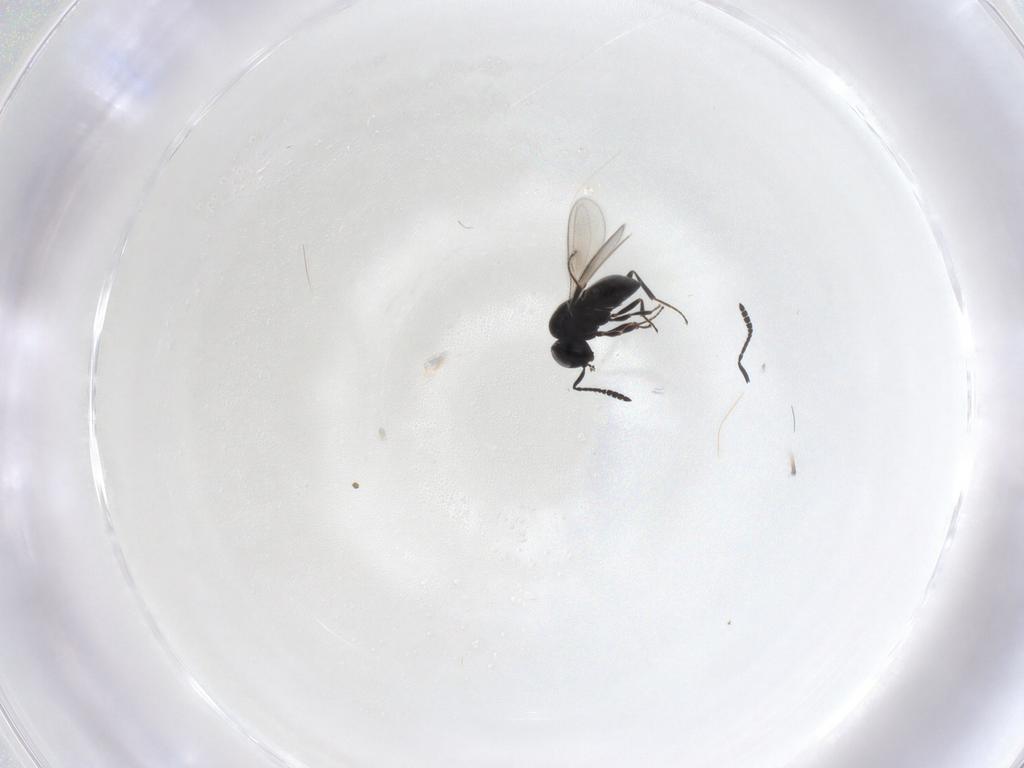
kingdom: Animalia
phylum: Arthropoda
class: Insecta
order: Hymenoptera
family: Scelionidae
